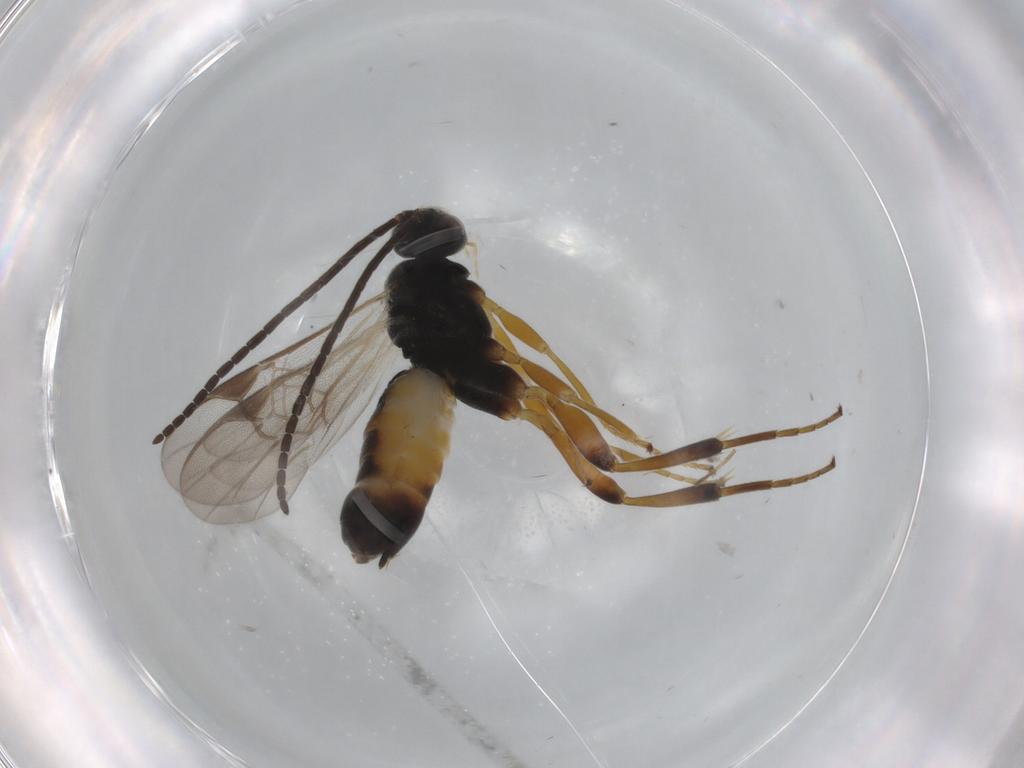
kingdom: Animalia
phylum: Arthropoda
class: Insecta
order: Hymenoptera
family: Braconidae
